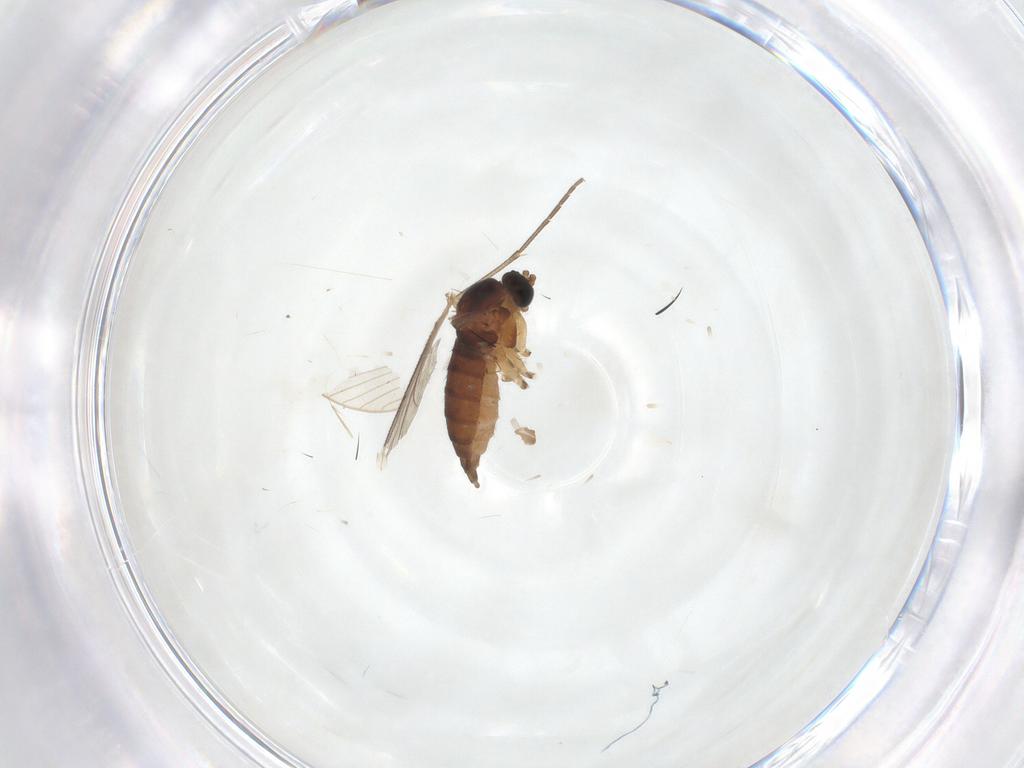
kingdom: Animalia
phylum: Arthropoda
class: Insecta
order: Diptera
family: Sciaridae
